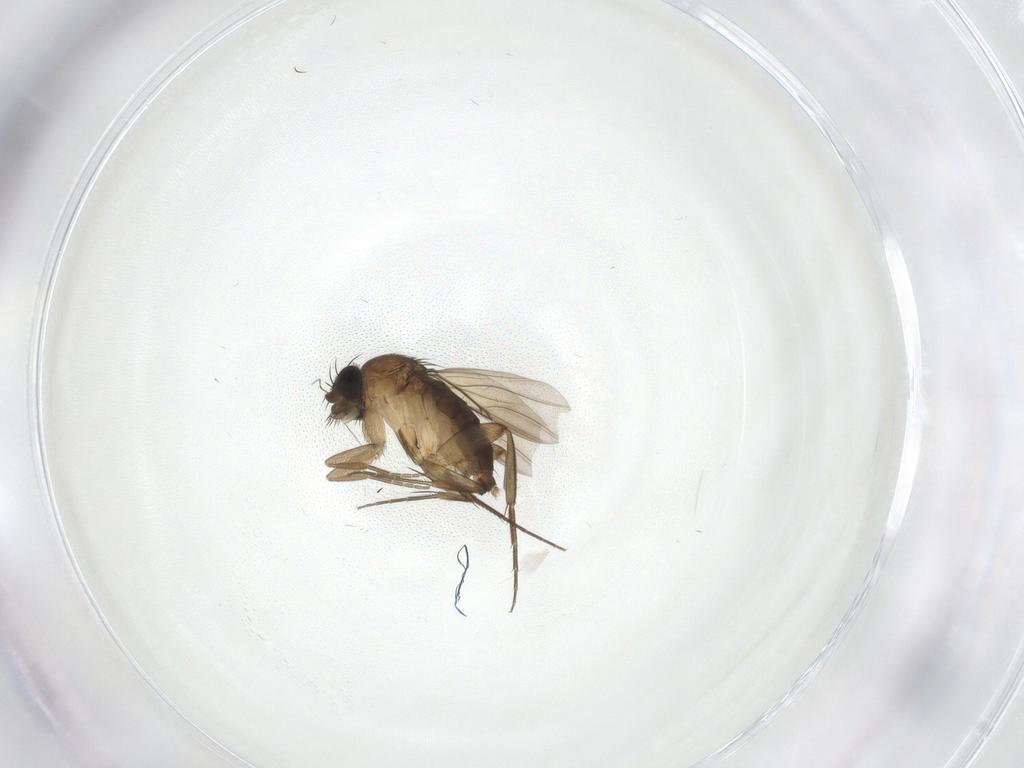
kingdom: Animalia
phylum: Arthropoda
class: Insecta
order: Diptera
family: Phoridae
